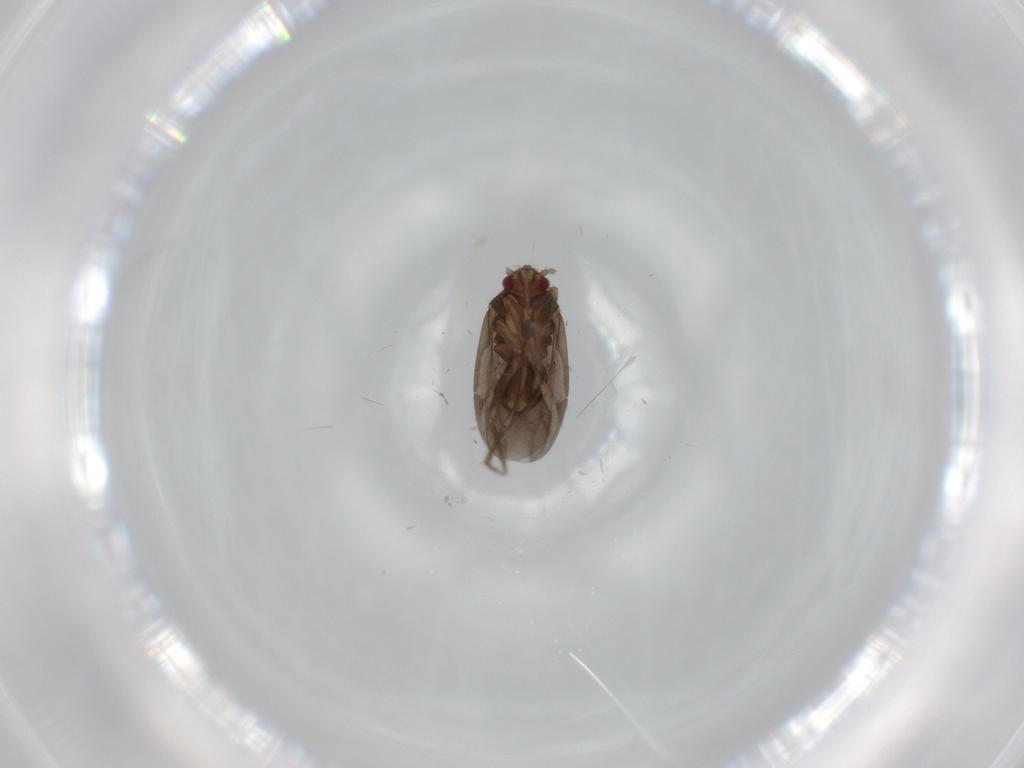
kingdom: Animalia
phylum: Arthropoda
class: Insecta
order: Hemiptera
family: Ceratocombidae
